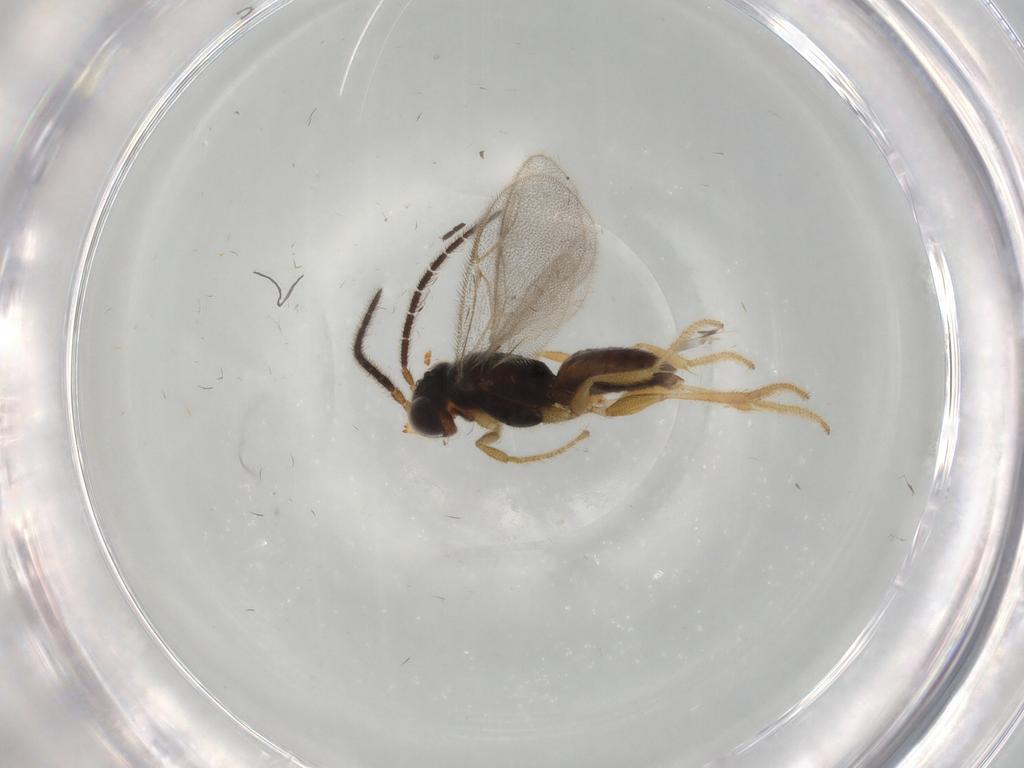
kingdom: Animalia
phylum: Arthropoda
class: Insecta
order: Hymenoptera
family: Dryinidae
